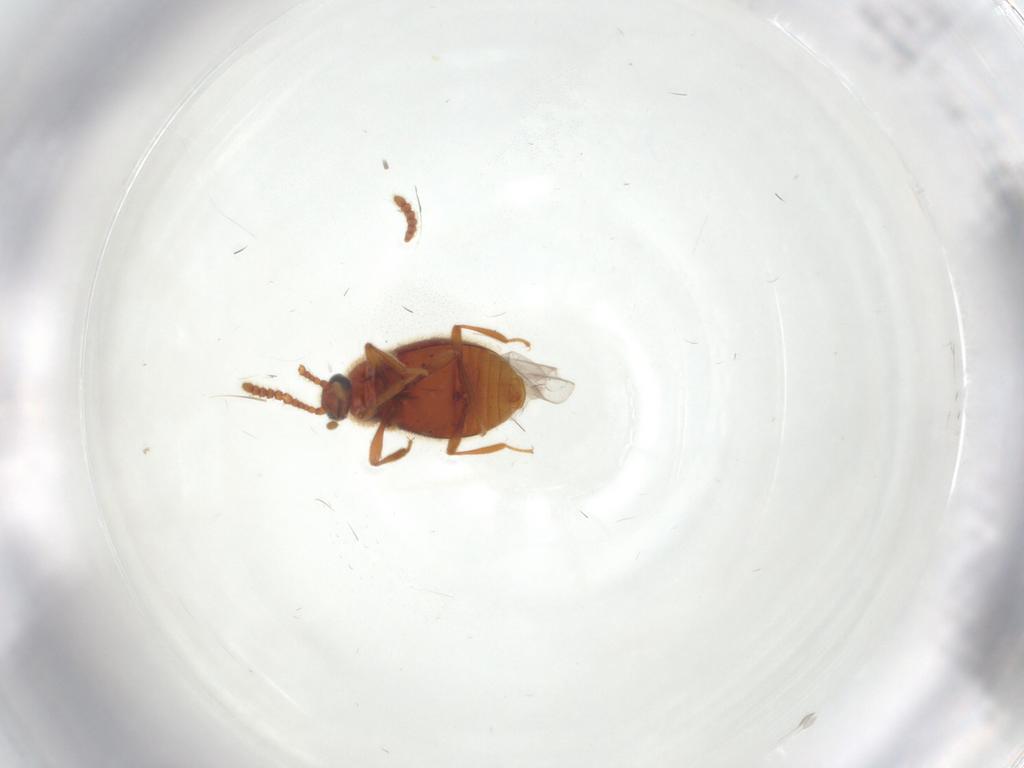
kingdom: Animalia
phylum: Arthropoda
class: Insecta
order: Coleoptera
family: Staphylinidae
